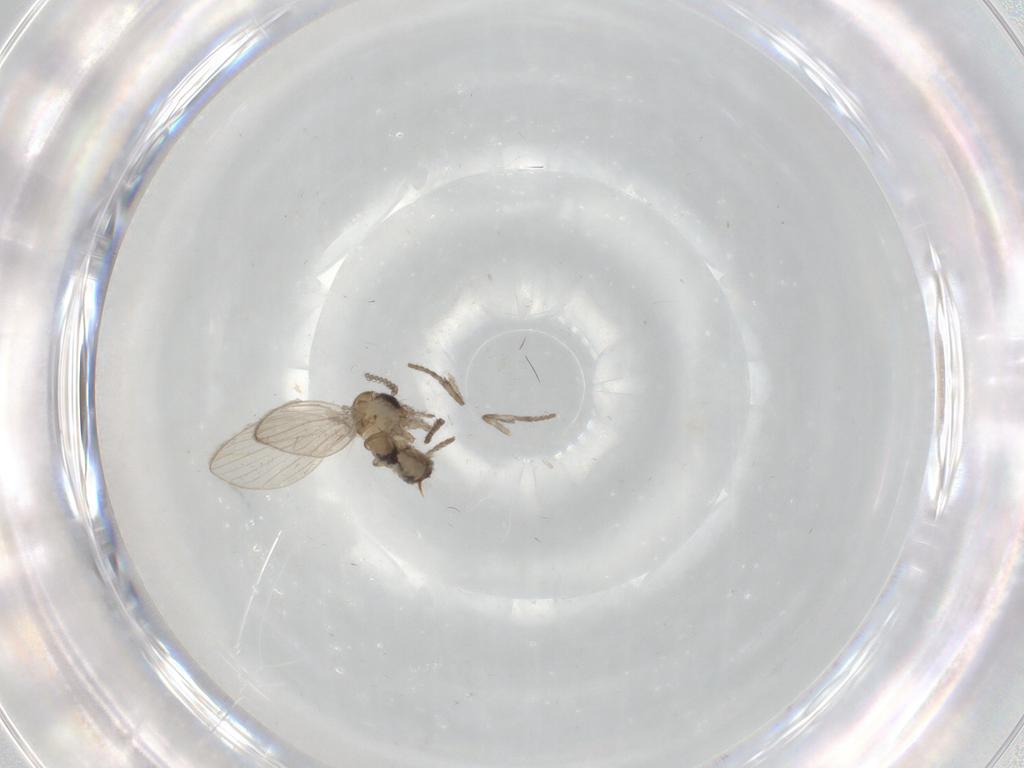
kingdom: Animalia
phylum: Arthropoda
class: Insecta
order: Diptera
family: Psychodidae
